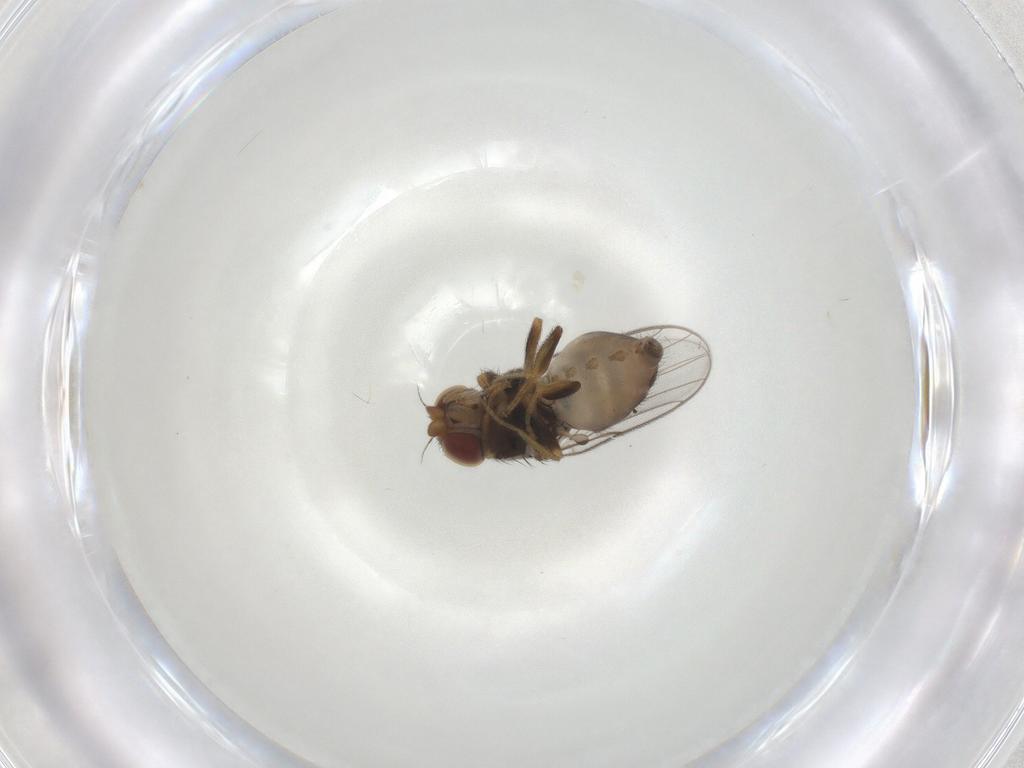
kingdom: Animalia
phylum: Arthropoda
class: Insecta
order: Diptera
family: Chloropidae
